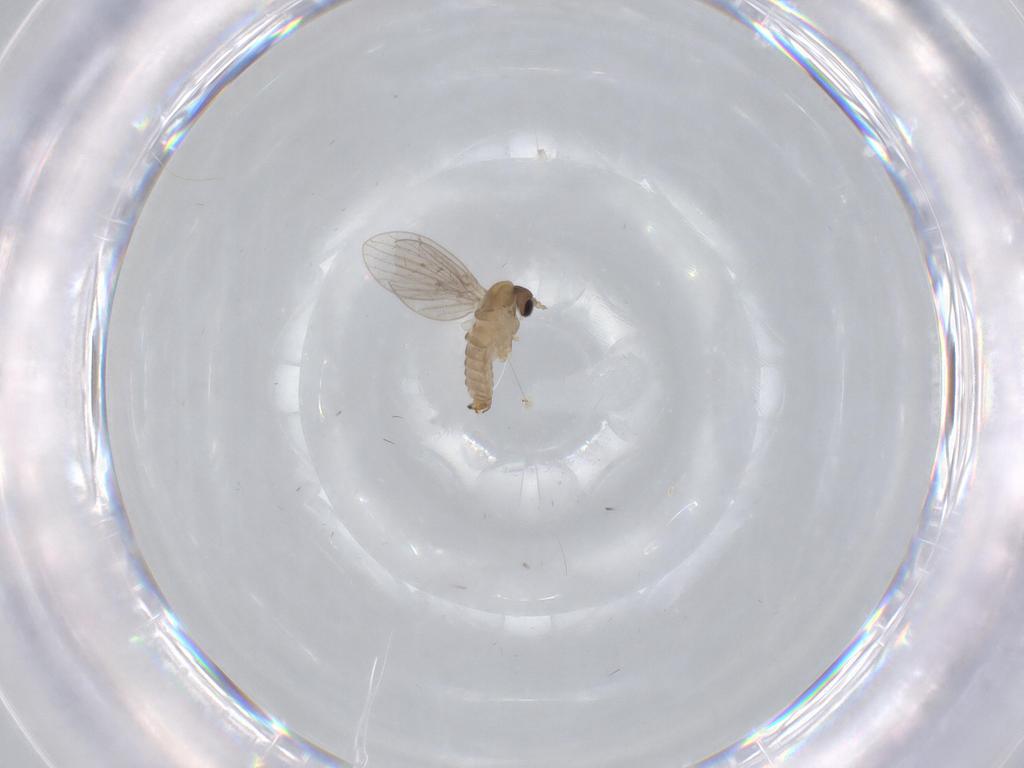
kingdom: Animalia
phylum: Arthropoda
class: Insecta
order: Diptera
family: Psychodidae
